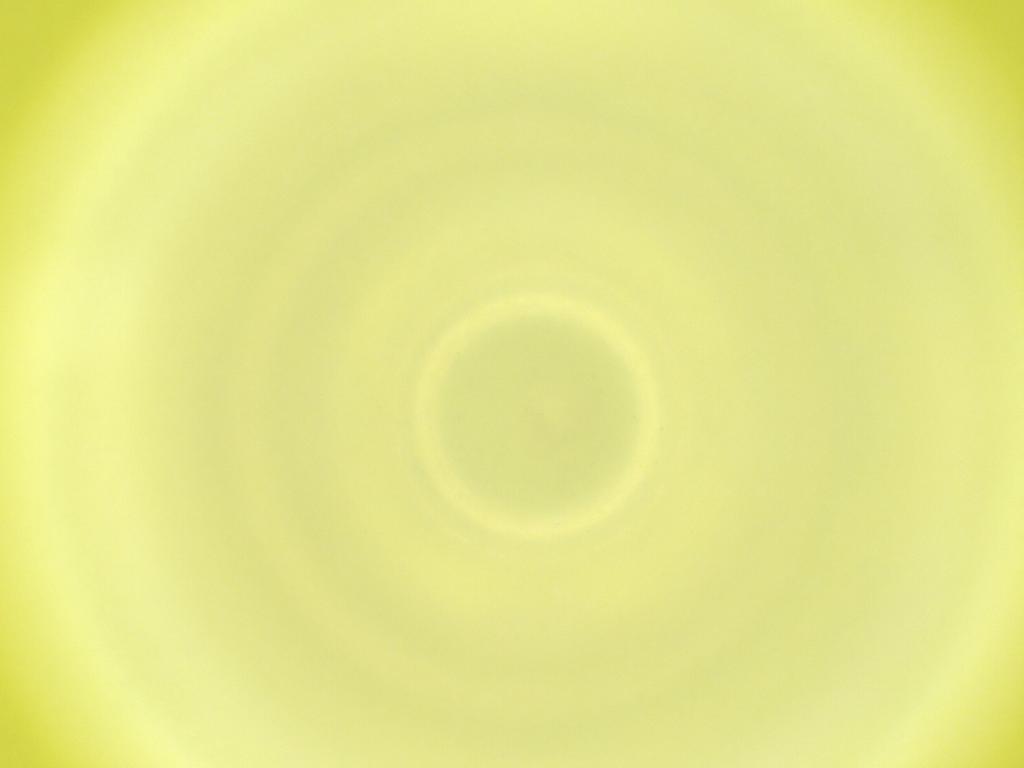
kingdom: Animalia
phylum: Arthropoda
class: Insecta
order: Diptera
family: Cecidomyiidae
